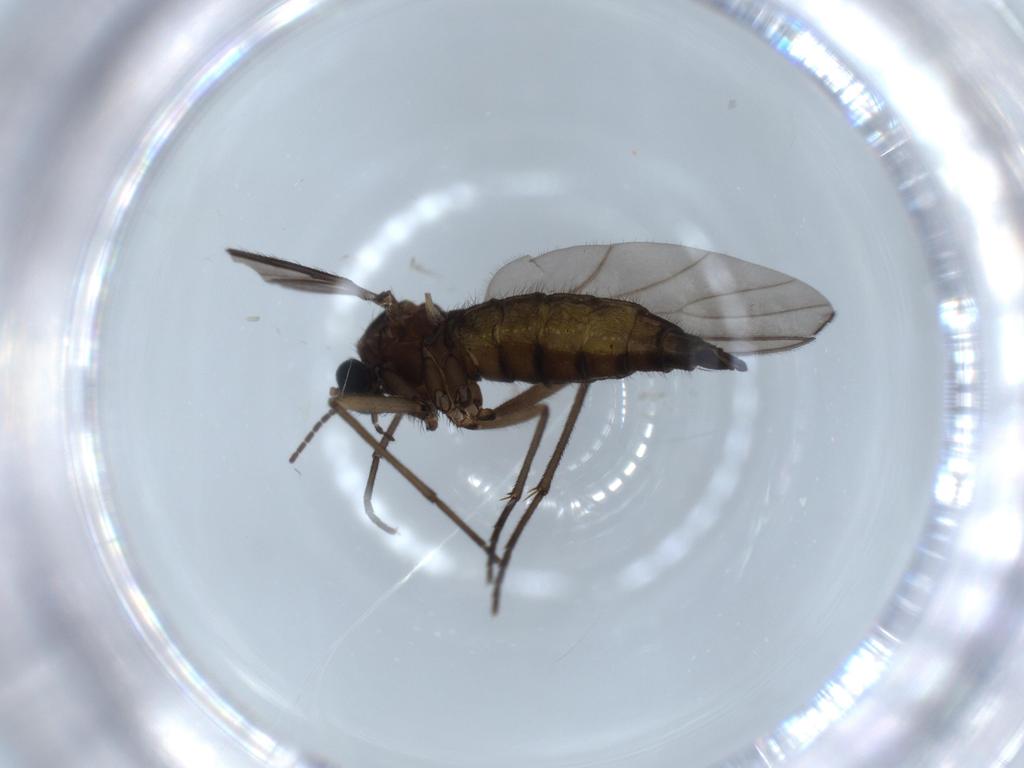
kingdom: Animalia
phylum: Arthropoda
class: Insecta
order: Diptera
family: Sciaridae
